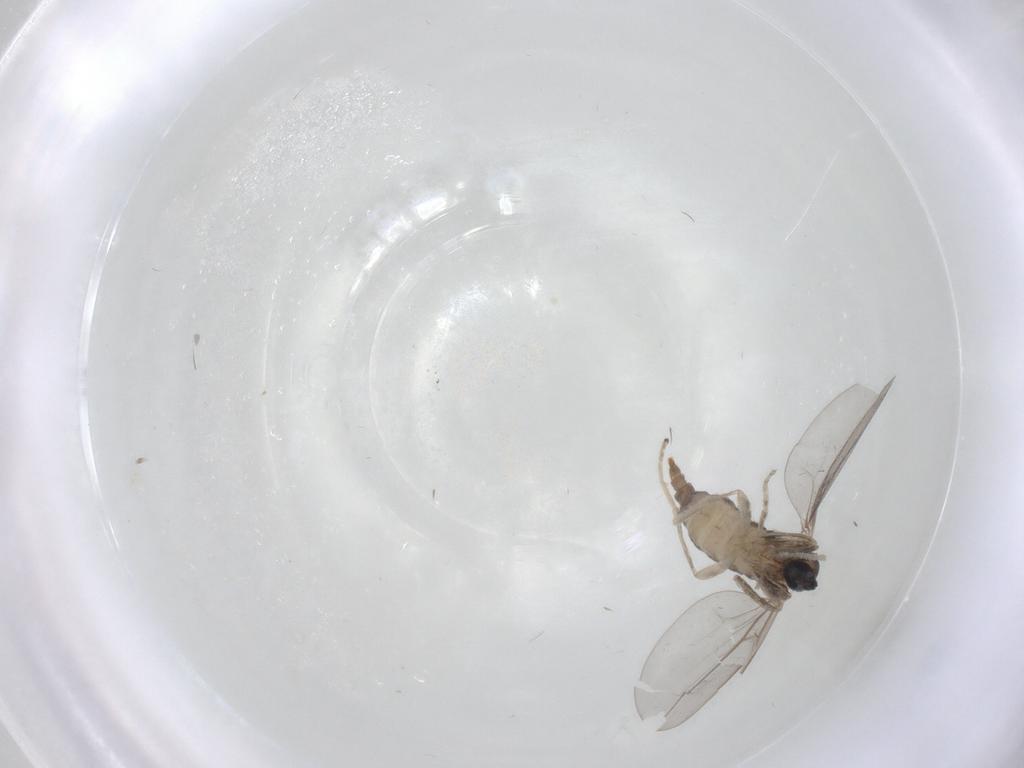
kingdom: Animalia
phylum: Arthropoda
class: Insecta
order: Diptera
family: Cecidomyiidae
